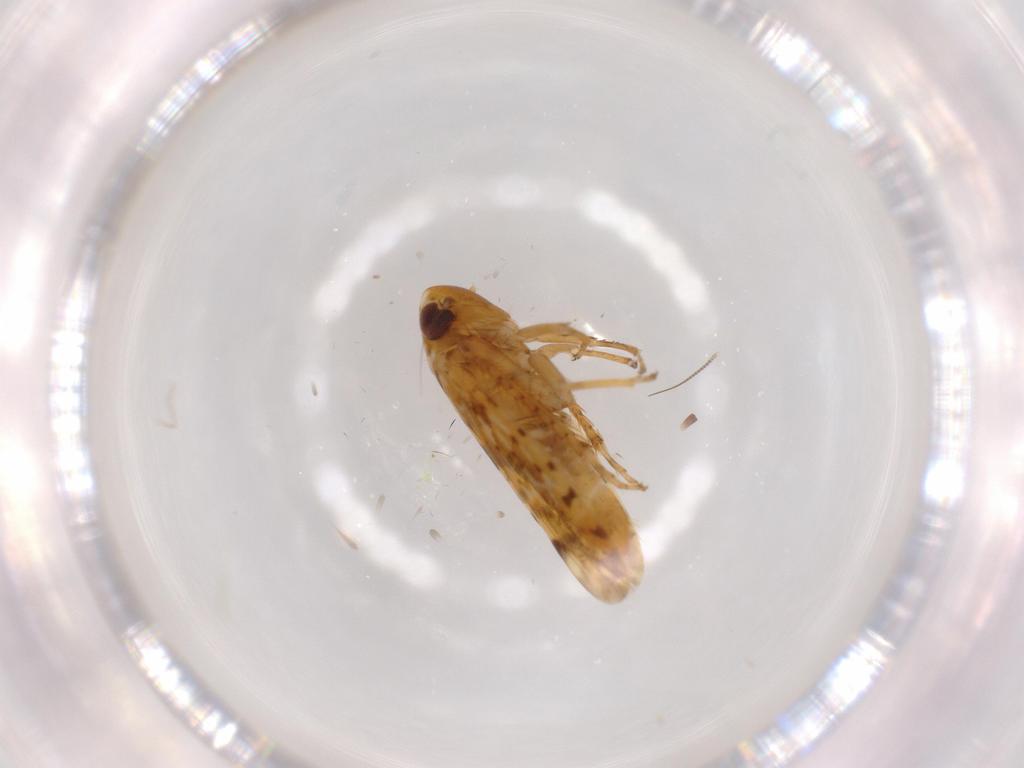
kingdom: Animalia
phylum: Arthropoda
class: Insecta
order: Hemiptera
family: Cicadellidae
